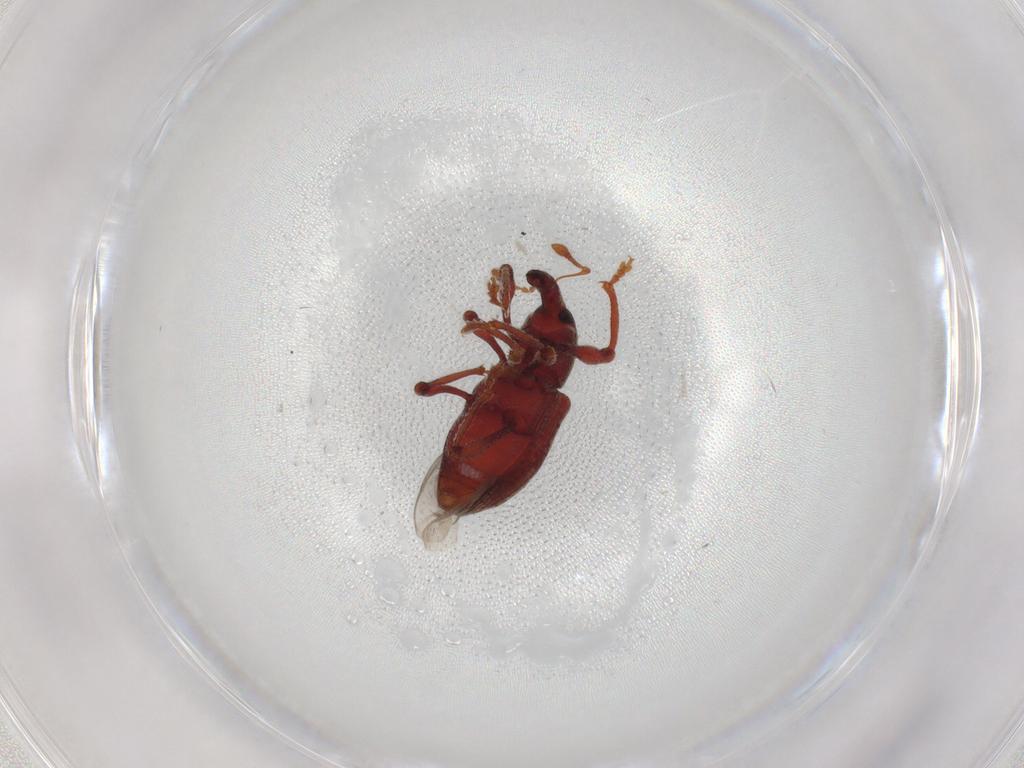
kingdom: Animalia
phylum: Arthropoda
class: Insecta
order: Coleoptera
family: Curculionidae
